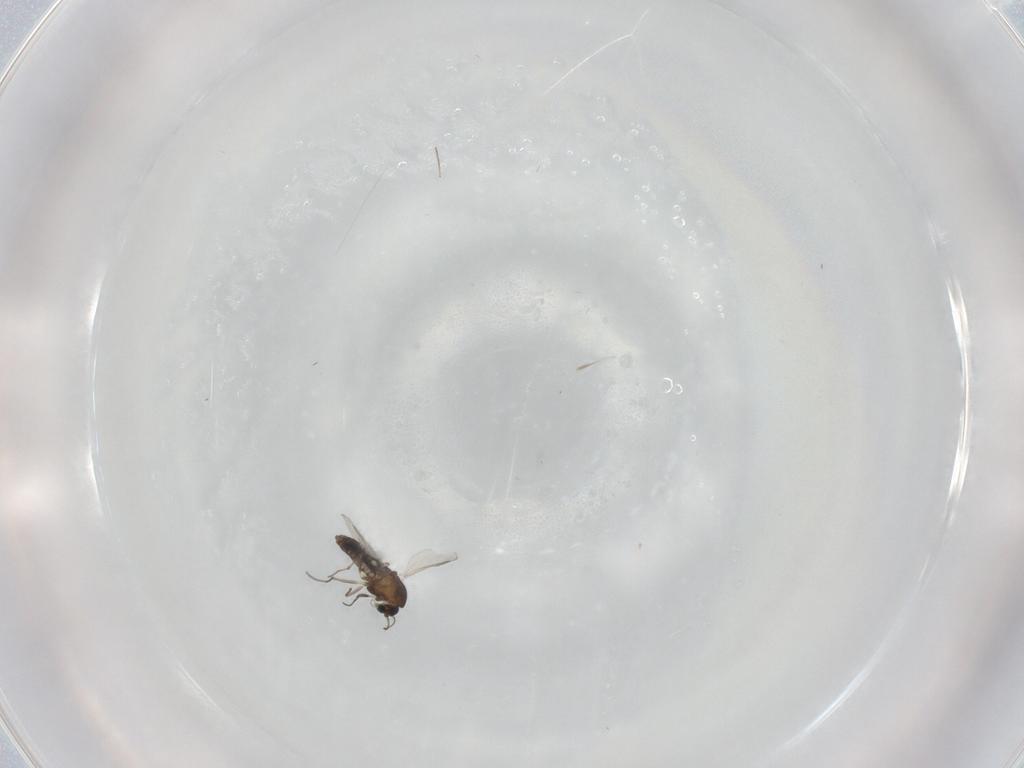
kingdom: Animalia
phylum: Arthropoda
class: Insecta
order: Diptera
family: Chironomidae
